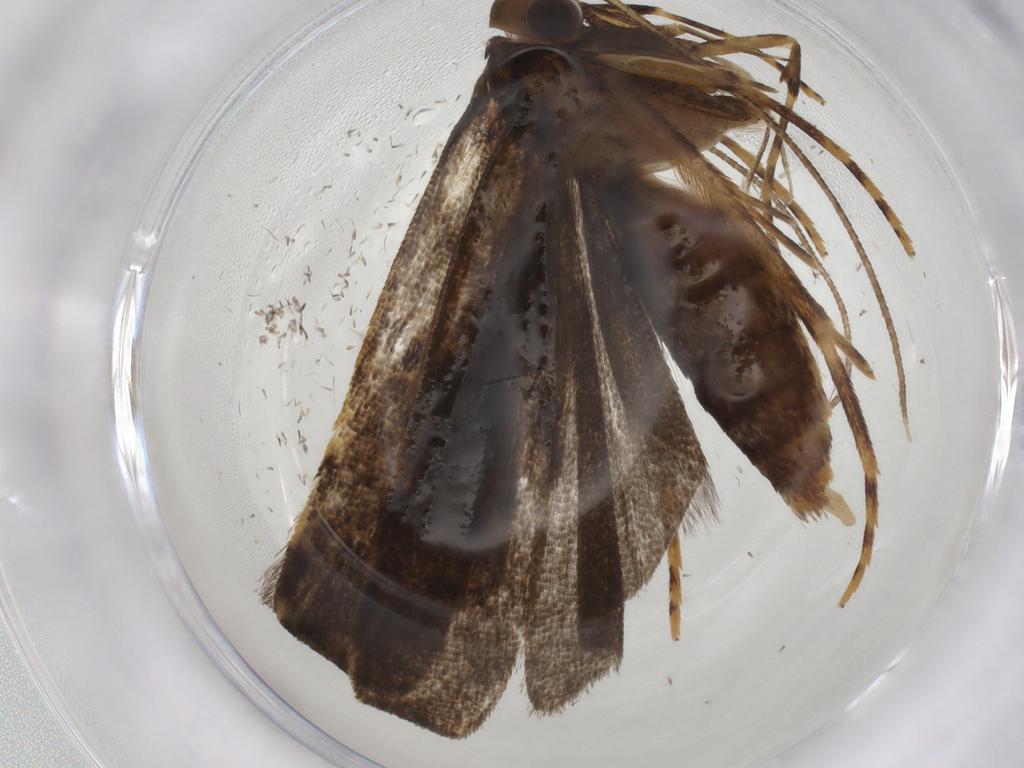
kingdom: Animalia
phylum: Arthropoda
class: Insecta
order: Lepidoptera
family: Autostichidae
